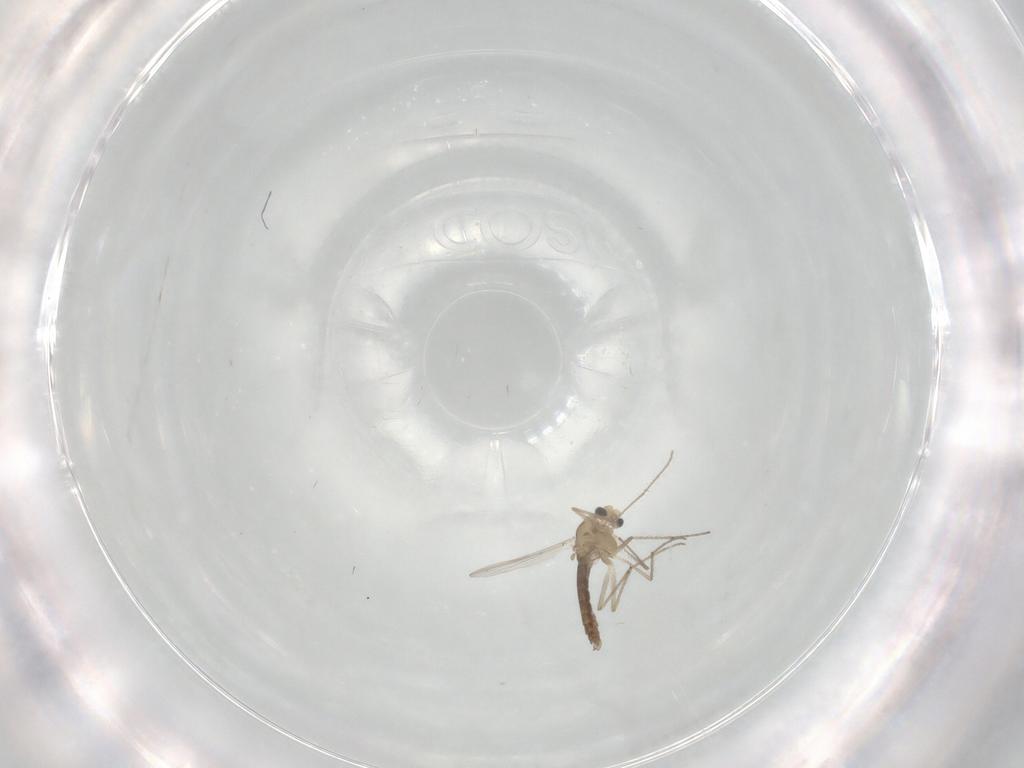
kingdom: Animalia
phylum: Arthropoda
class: Insecta
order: Diptera
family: Chironomidae
